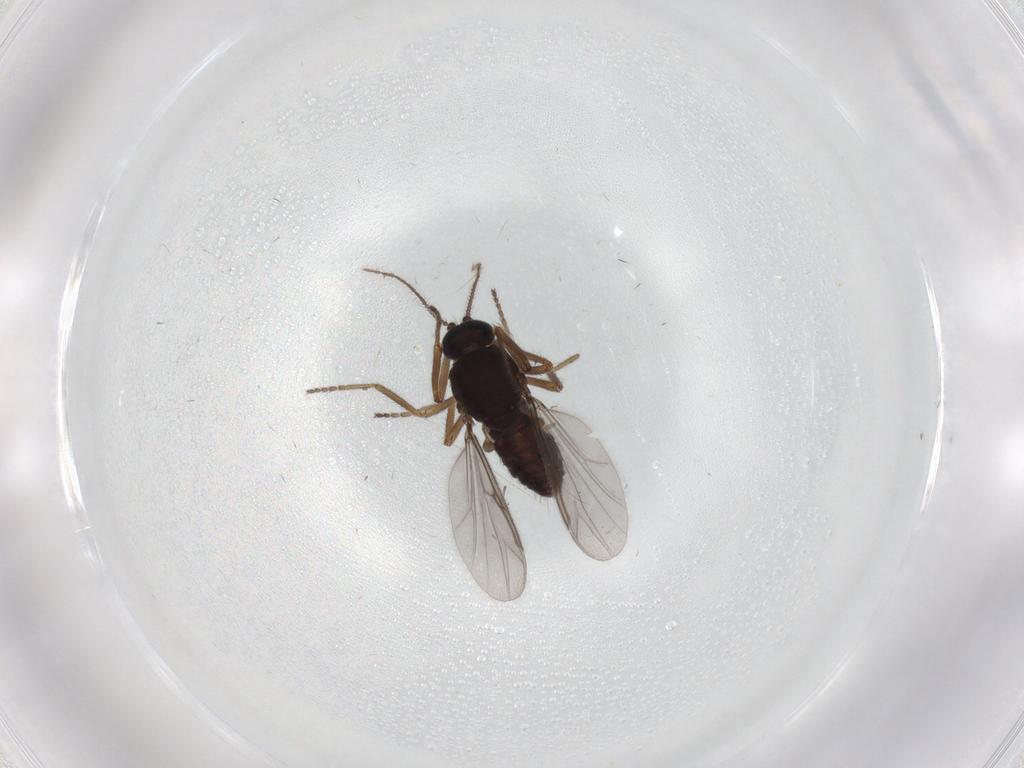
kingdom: Animalia
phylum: Arthropoda
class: Insecta
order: Diptera
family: Ceratopogonidae
